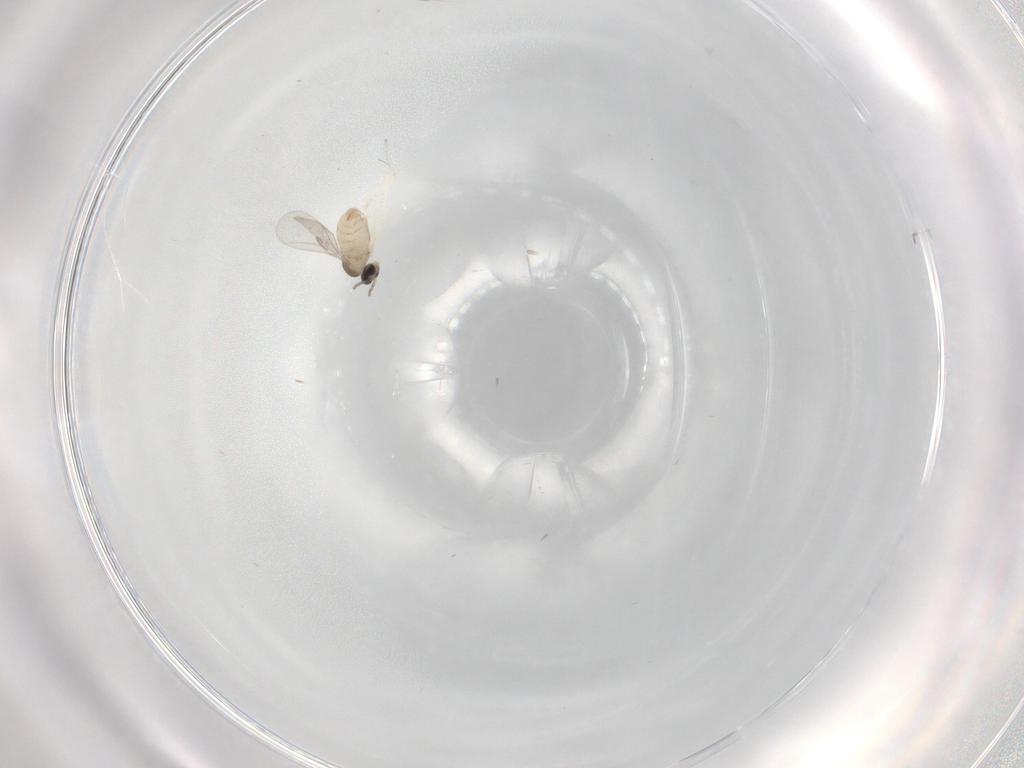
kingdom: Animalia
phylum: Arthropoda
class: Insecta
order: Diptera
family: Cecidomyiidae
